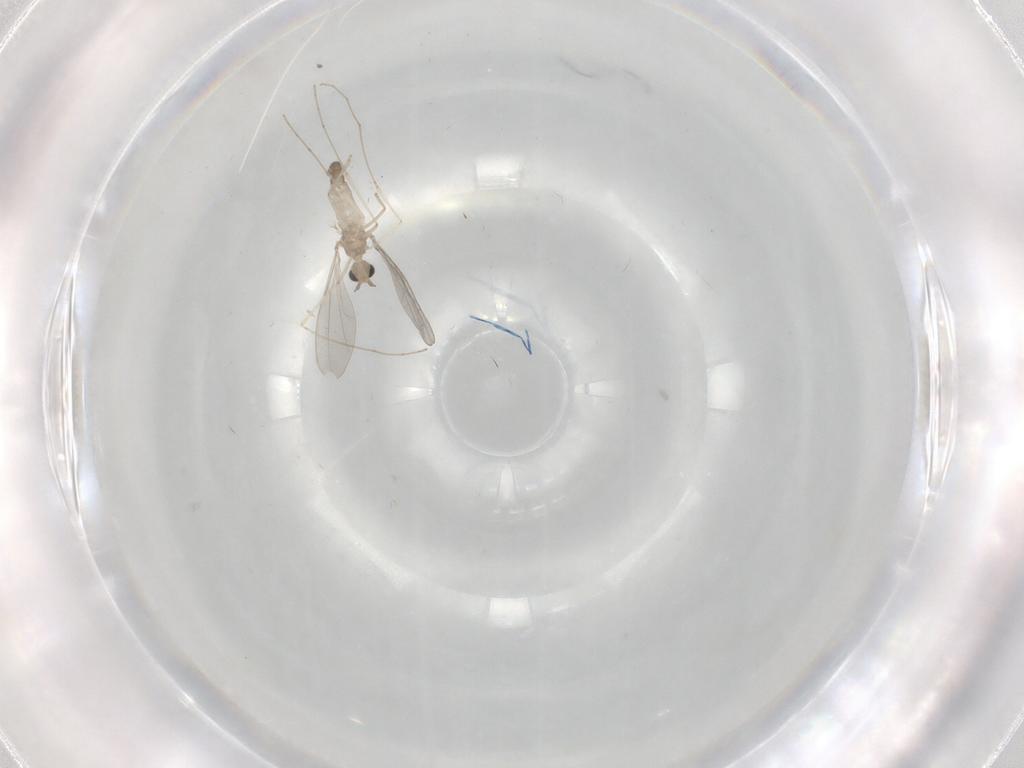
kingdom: Animalia
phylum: Arthropoda
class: Insecta
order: Diptera
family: Cecidomyiidae
